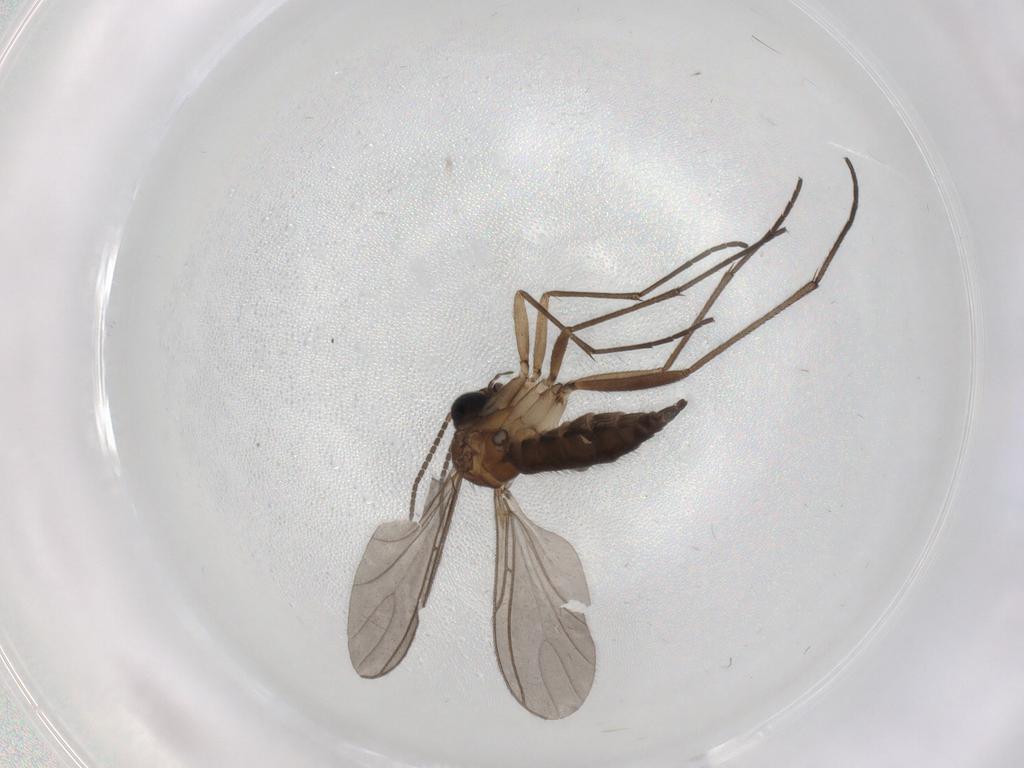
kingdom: Animalia
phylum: Arthropoda
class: Insecta
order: Diptera
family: Sciaridae
